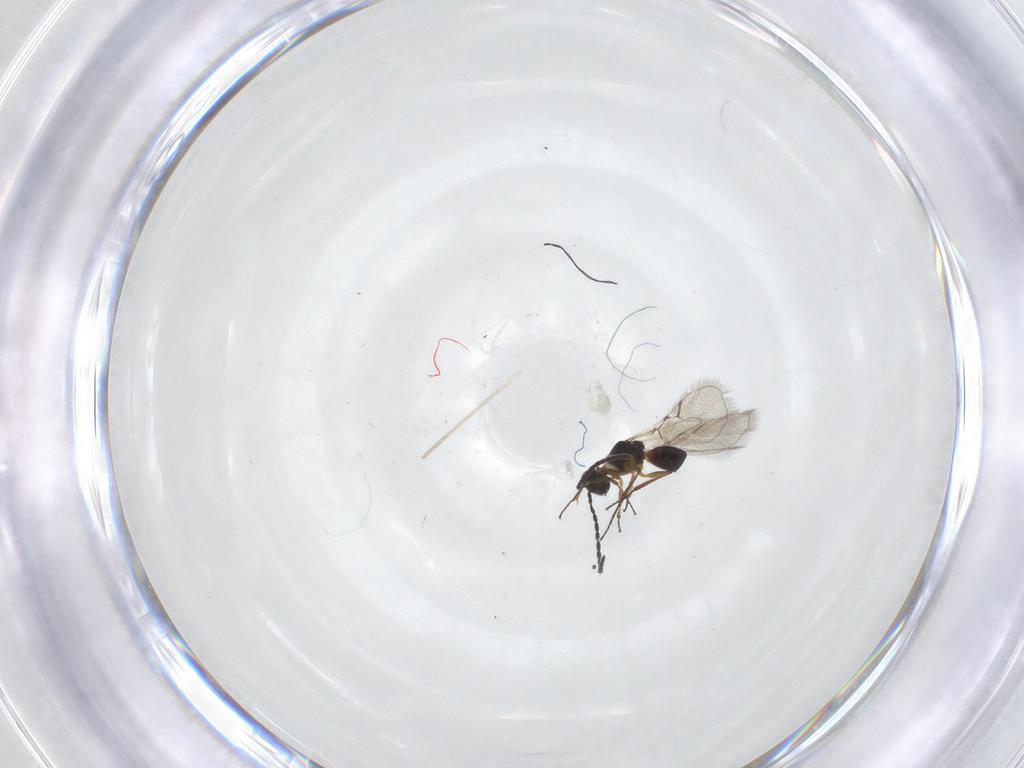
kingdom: Animalia
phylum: Arthropoda
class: Insecta
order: Hymenoptera
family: Figitidae
